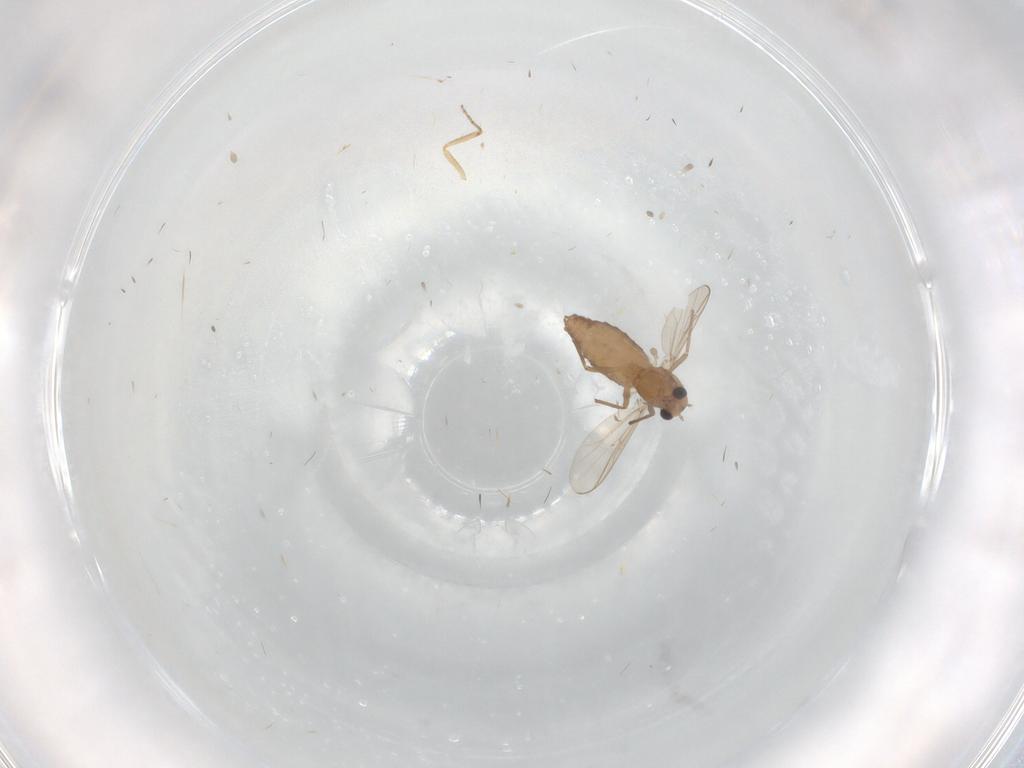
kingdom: Animalia
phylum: Arthropoda
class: Insecta
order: Diptera
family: Chironomidae
